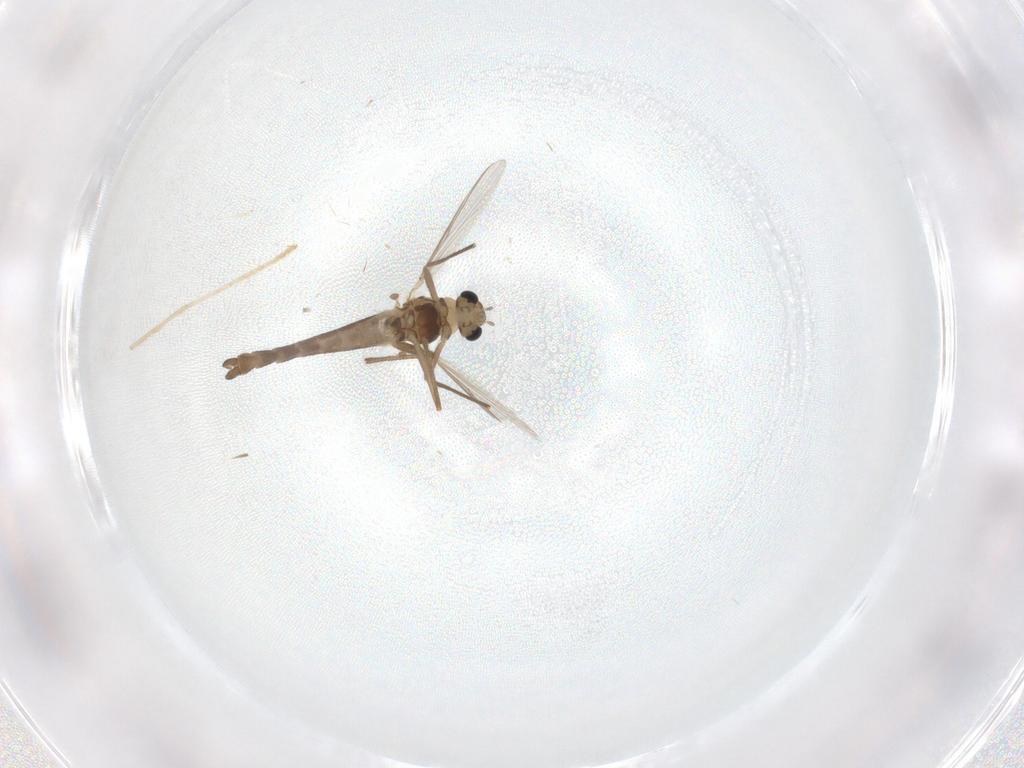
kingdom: Animalia
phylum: Arthropoda
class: Insecta
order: Diptera
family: Chironomidae
